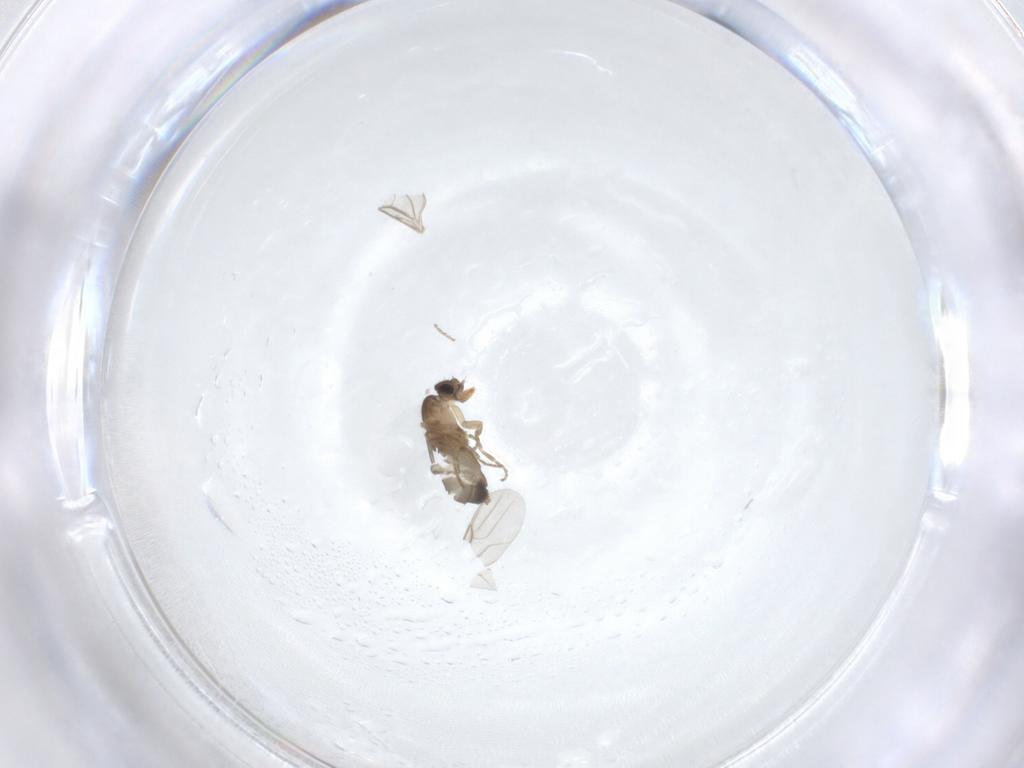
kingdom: Animalia
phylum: Arthropoda
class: Insecta
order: Diptera
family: Phoridae
